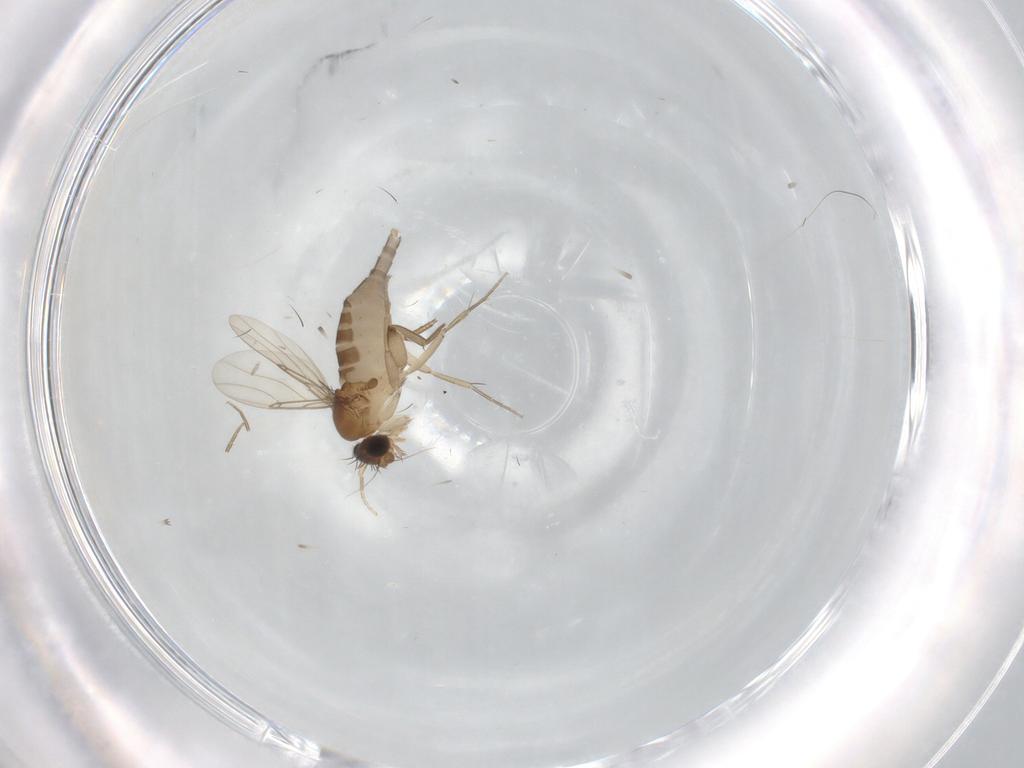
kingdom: Animalia
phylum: Arthropoda
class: Insecta
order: Diptera
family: Phoridae
